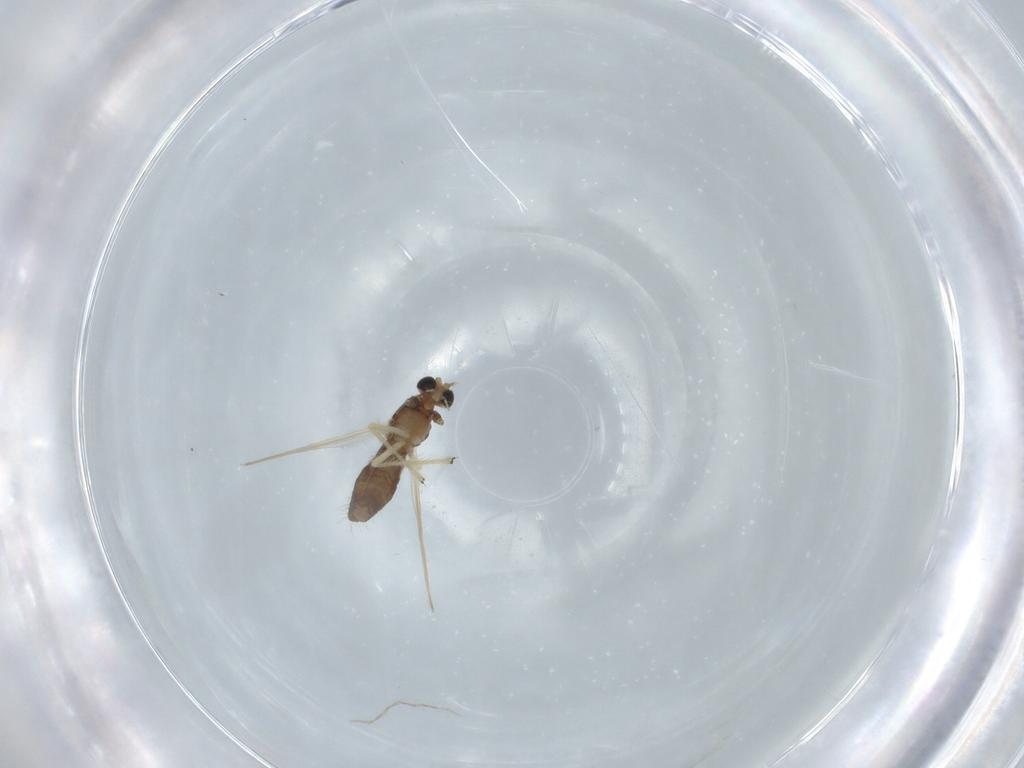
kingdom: Animalia
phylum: Arthropoda
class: Insecta
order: Diptera
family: Chironomidae
